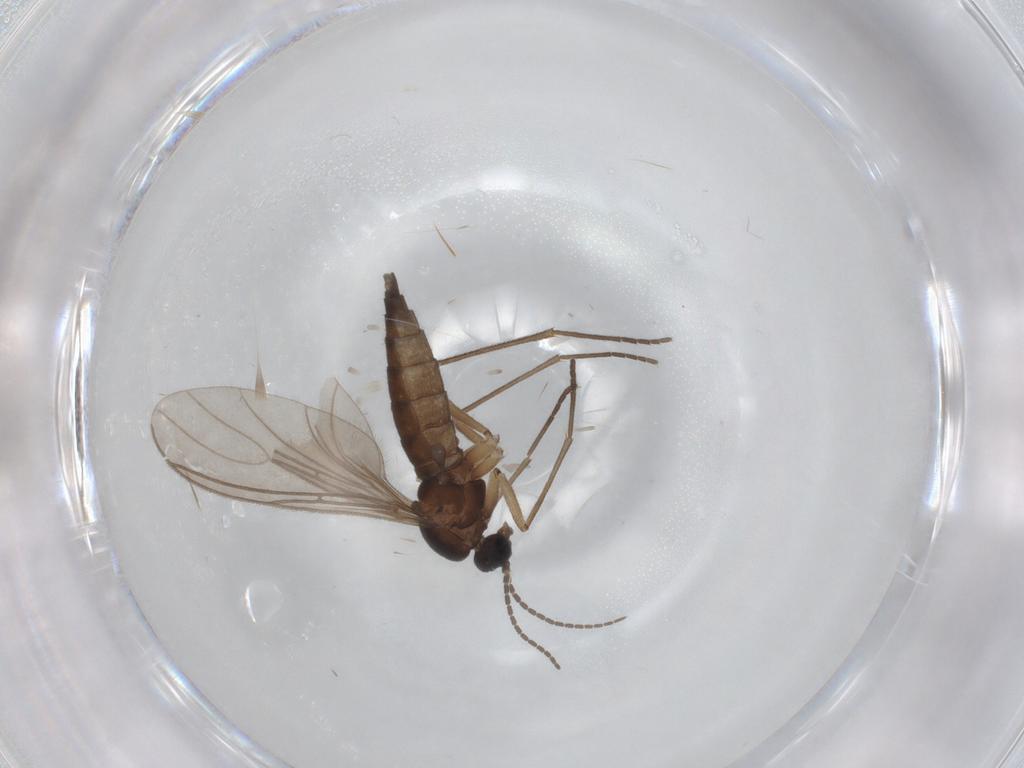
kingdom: Animalia
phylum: Arthropoda
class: Insecta
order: Diptera
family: Sciaridae
